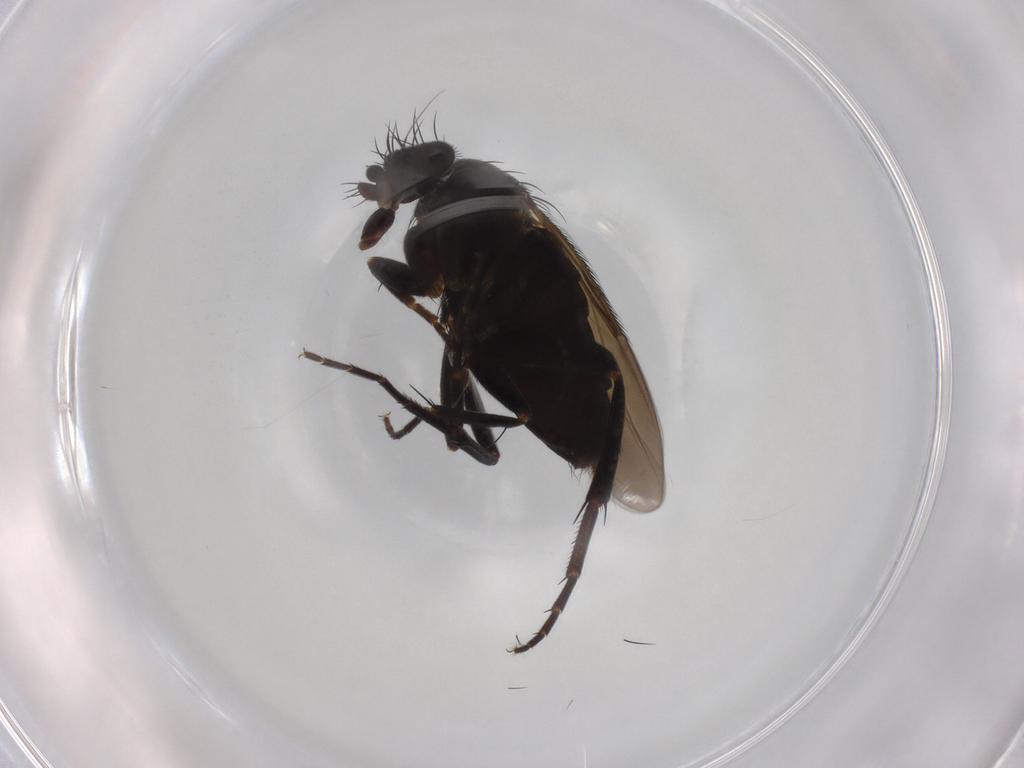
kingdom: Animalia
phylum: Arthropoda
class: Insecta
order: Diptera
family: Phoridae
